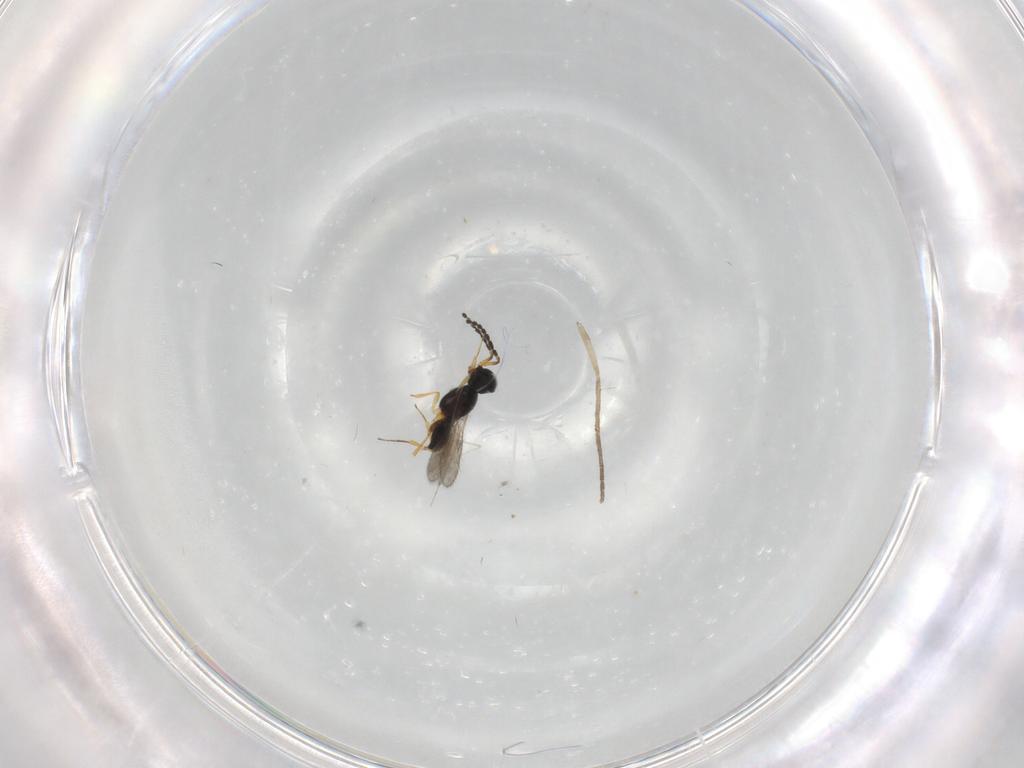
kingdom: Animalia
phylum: Arthropoda
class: Insecta
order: Hymenoptera
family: Scelionidae
